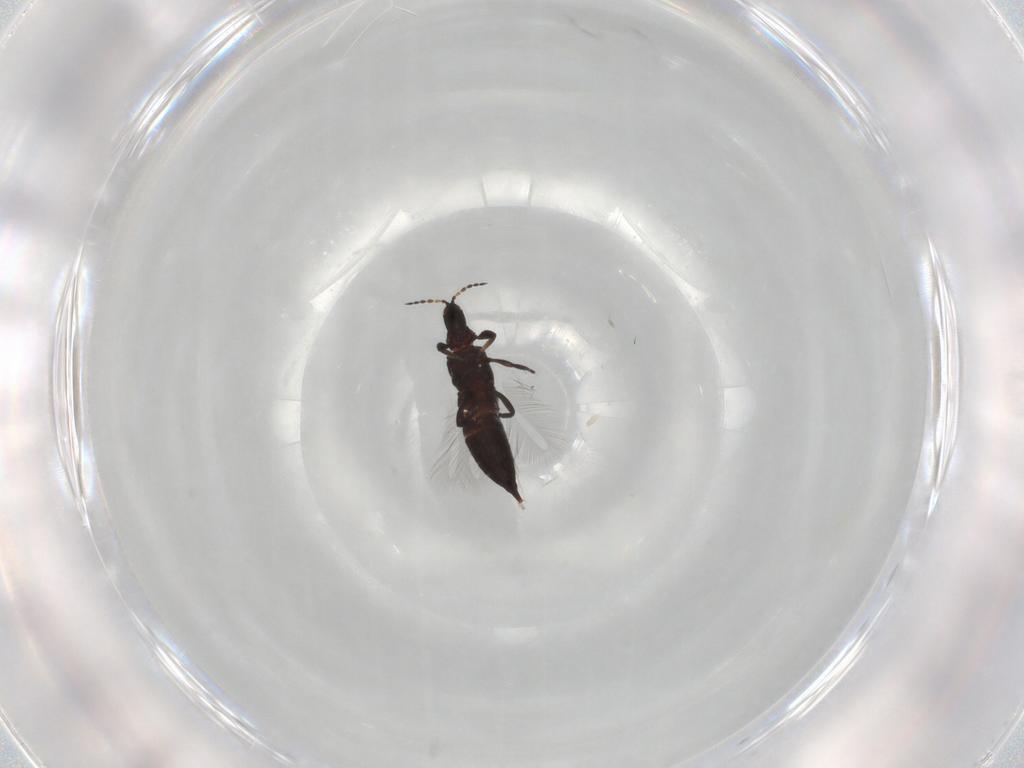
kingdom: Animalia
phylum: Arthropoda
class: Insecta
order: Thysanoptera
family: Phlaeothripidae
